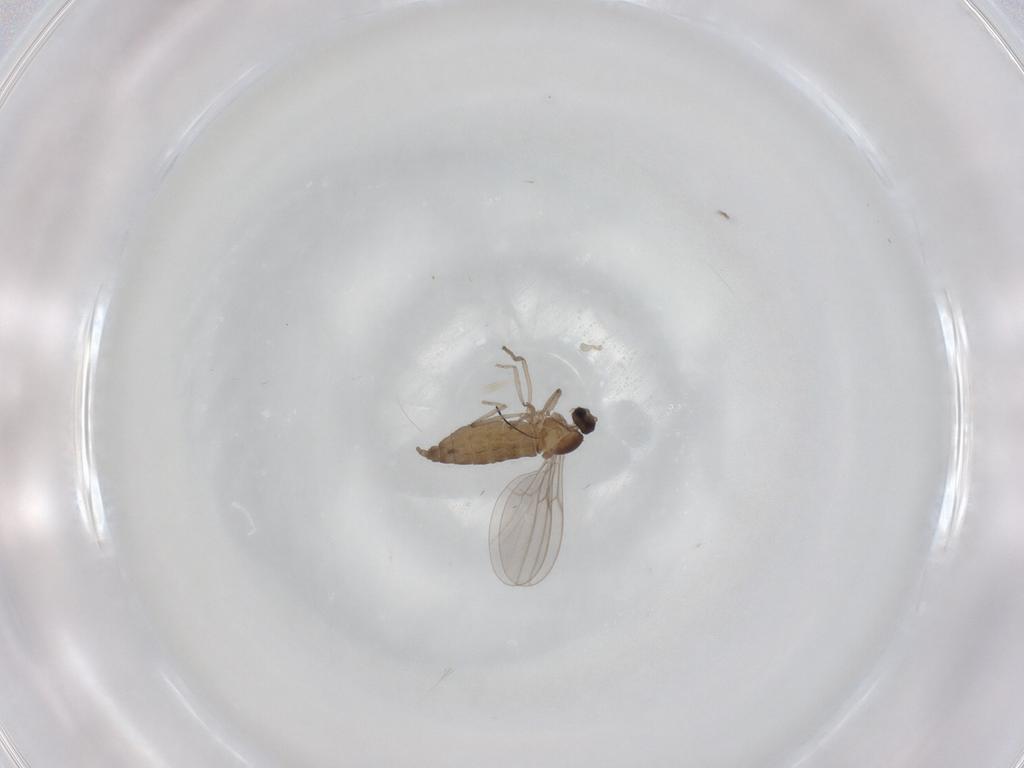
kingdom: Animalia
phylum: Arthropoda
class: Insecta
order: Diptera
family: Cecidomyiidae
